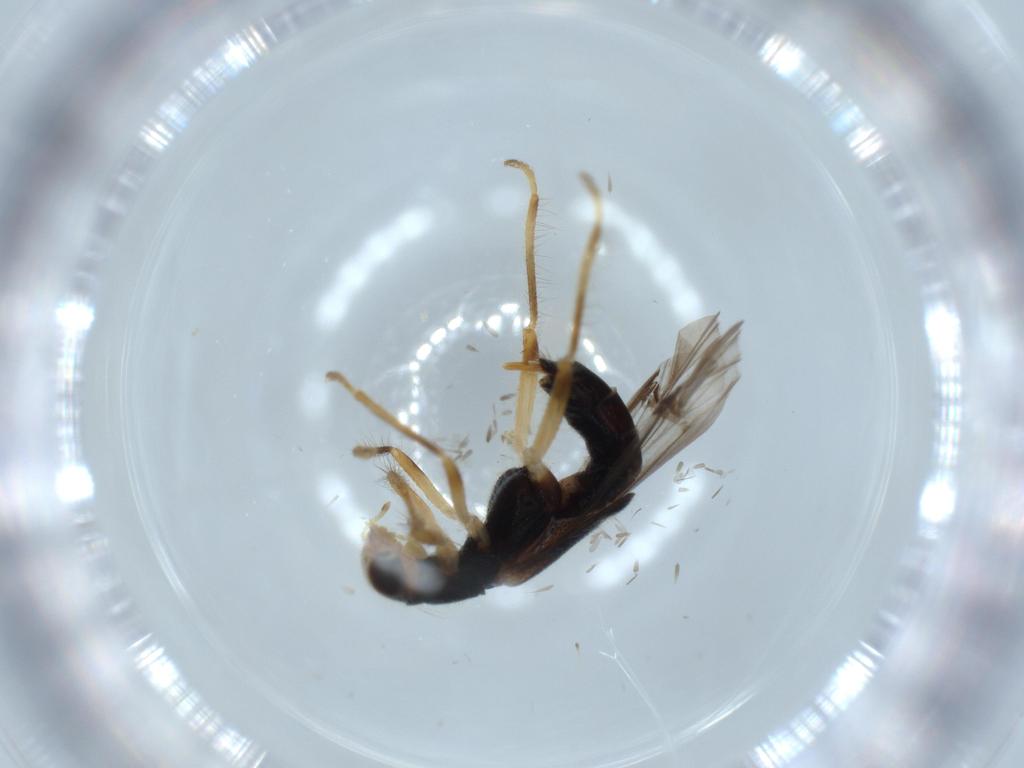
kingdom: Animalia
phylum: Arthropoda
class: Insecta
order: Coleoptera
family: Cleridae
